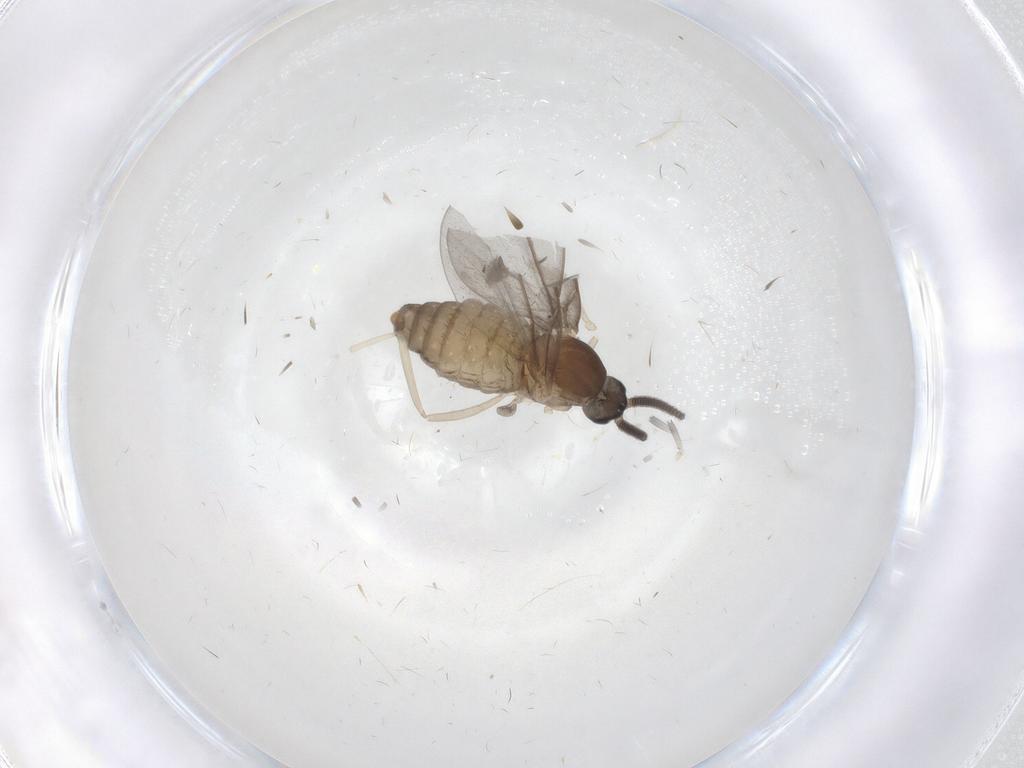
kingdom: Animalia
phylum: Arthropoda
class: Insecta
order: Diptera
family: Cecidomyiidae
